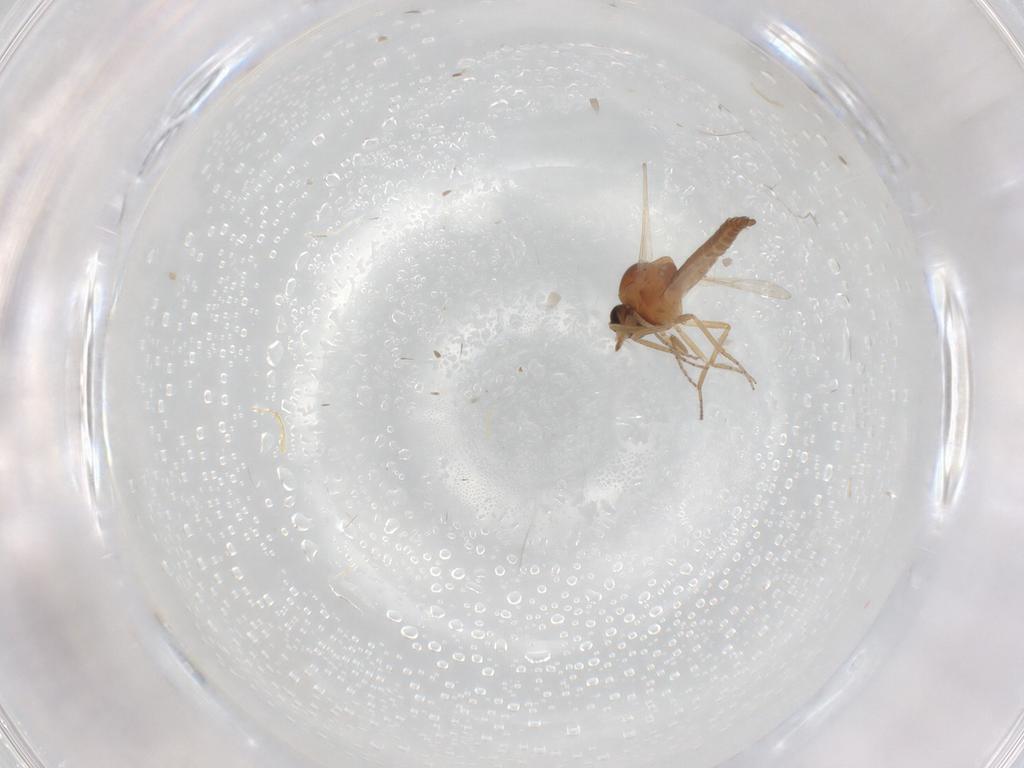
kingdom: Animalia
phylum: Arthropoda
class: Insecta
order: Diptera
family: Ceratopogonidae
